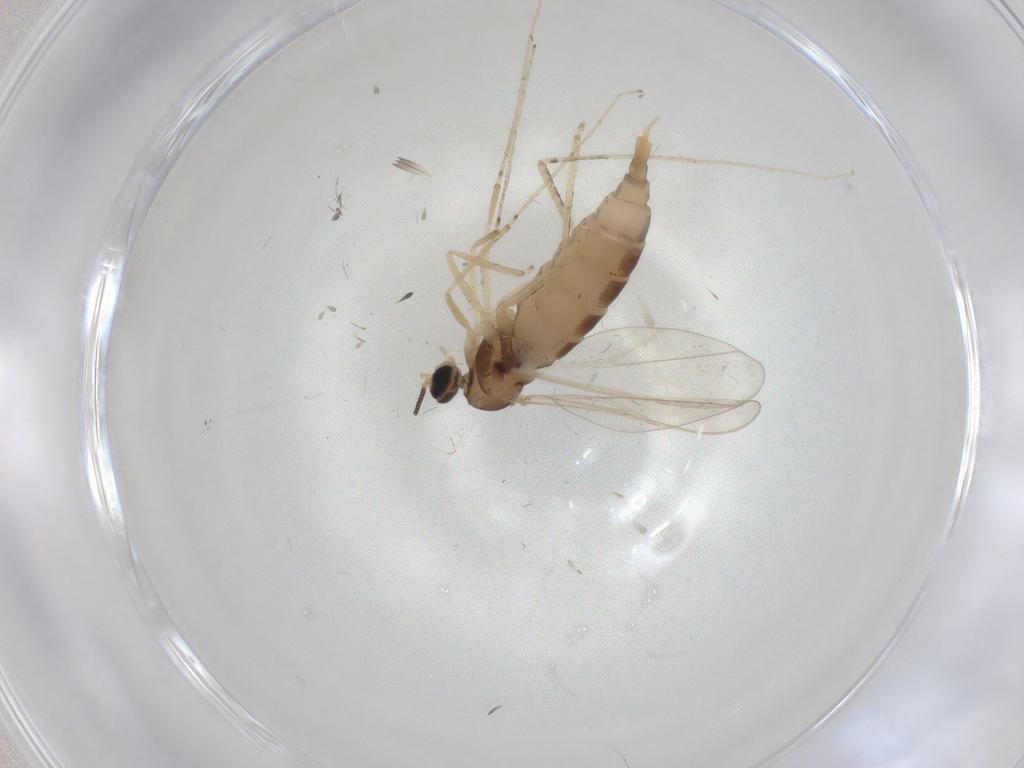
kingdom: Animalia
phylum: Arthropoda
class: Insecta
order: Diptera
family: Cecidomyiidae
